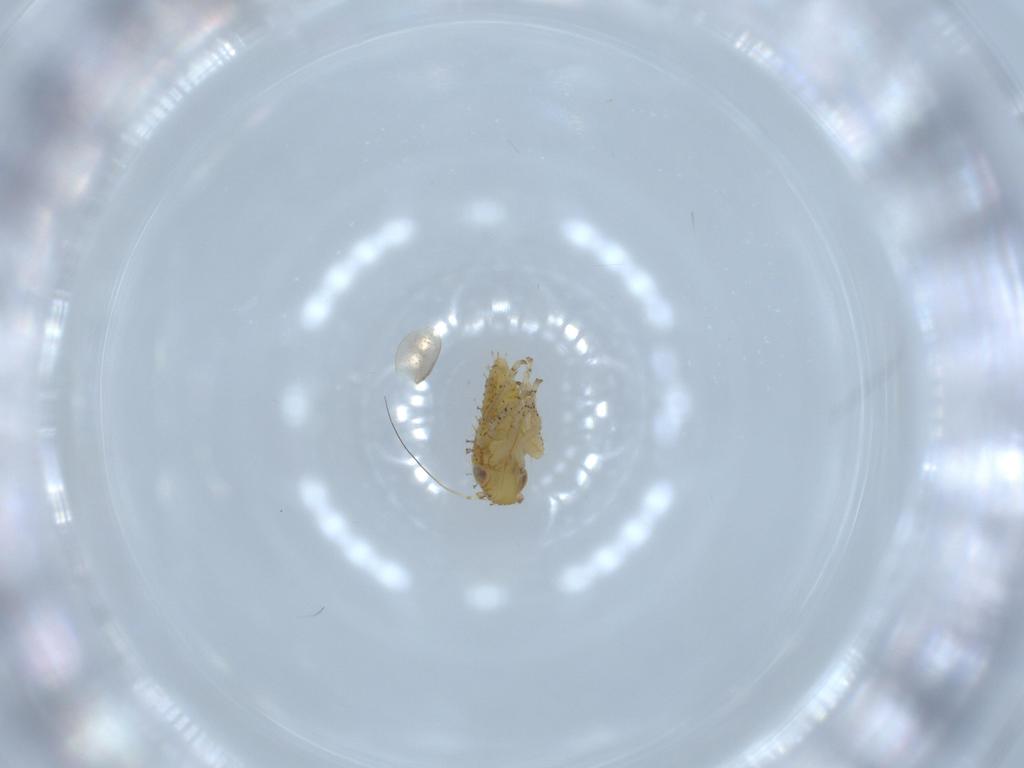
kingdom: Animalia
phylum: Arthropoda
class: Insecta
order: Hemiptera
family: Cicadellidae
